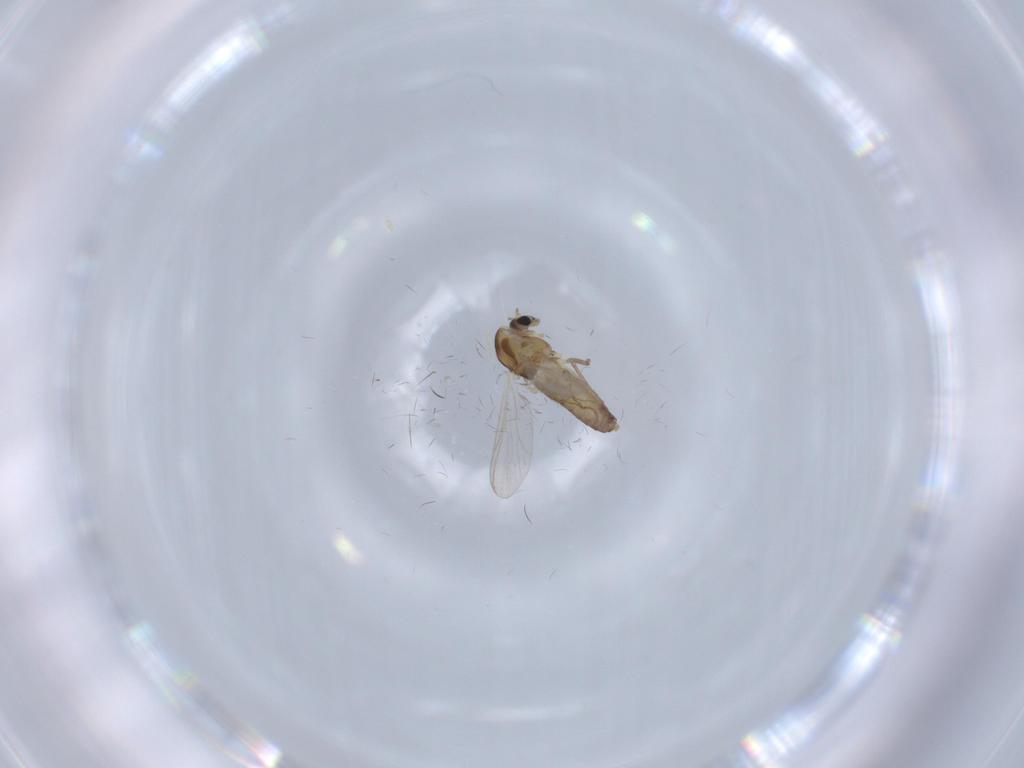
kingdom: Animalia
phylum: Arthropoda
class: Insecta
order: Diptera
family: Chironomidae
